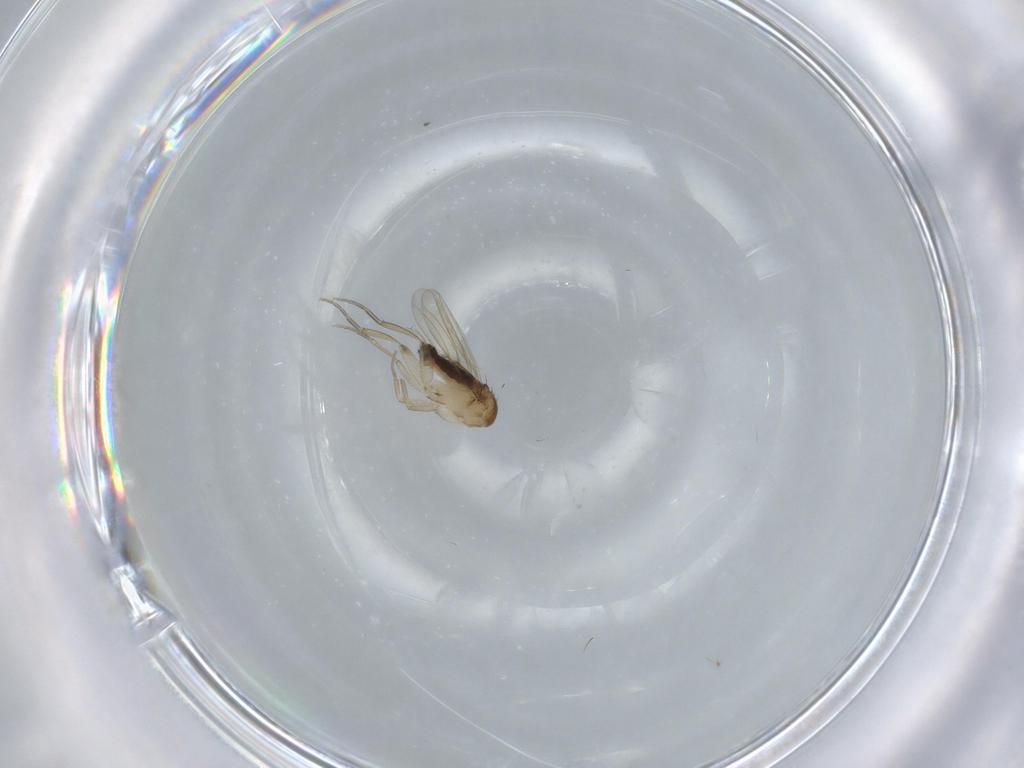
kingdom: Animalia
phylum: Arthropoda
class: Insecta
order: Diptera
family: Phoridae
